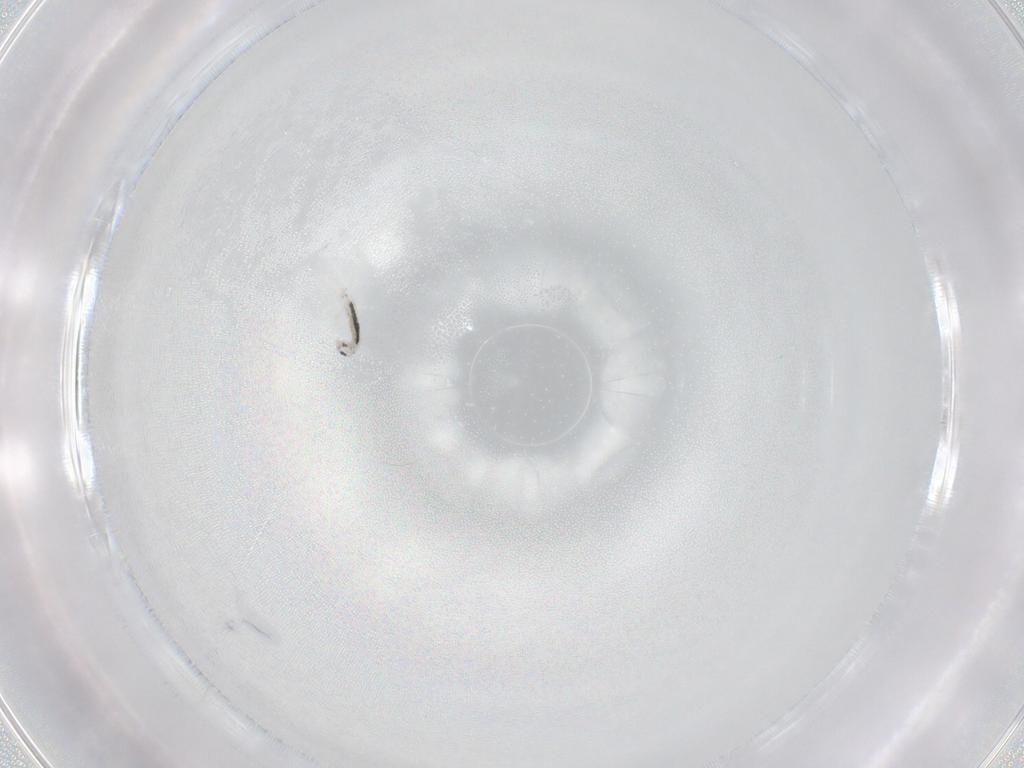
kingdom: Animalia
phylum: Arthropoda
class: Collembola
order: Entomobryomorpha
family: Entomobryidae
